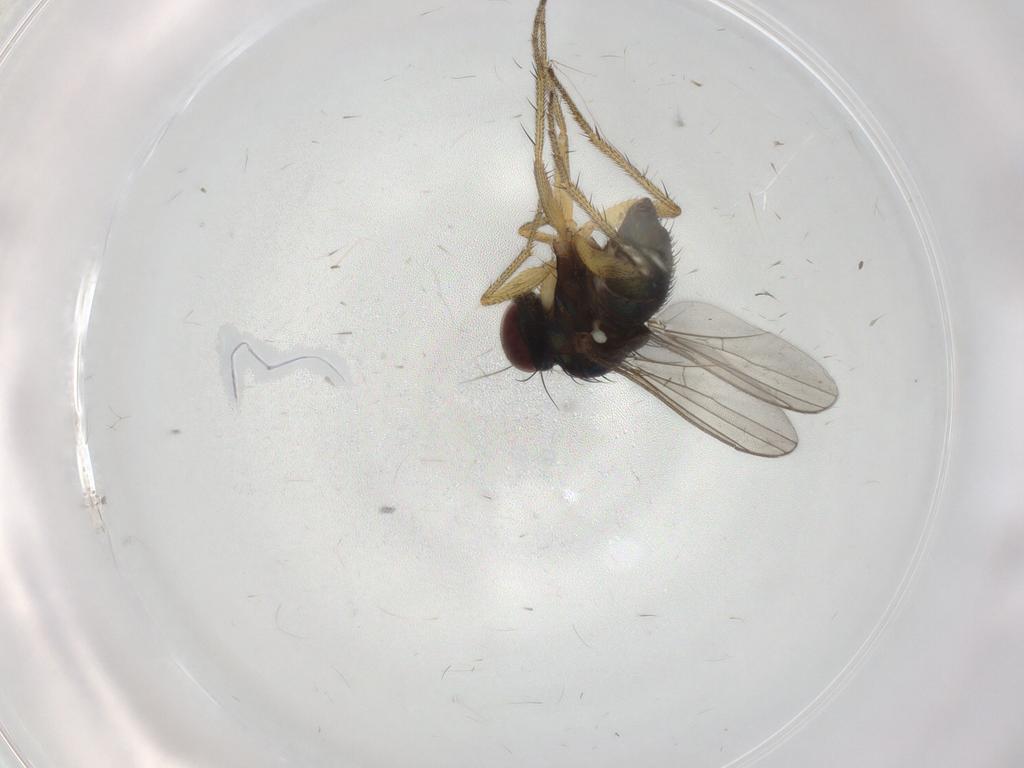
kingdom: Animalia
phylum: Arthropoda
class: Insecta
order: Diptera
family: Dolichopodidae
